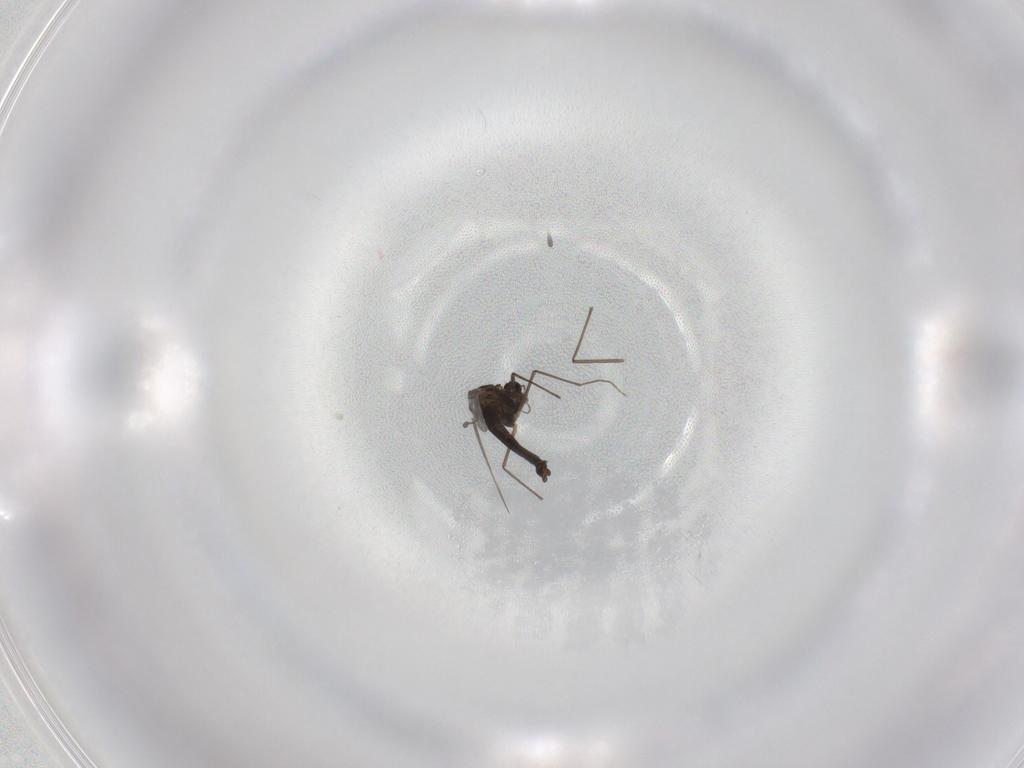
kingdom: Animalia
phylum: Arthropoda
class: Insecta
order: Diptera
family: Chironomidae
